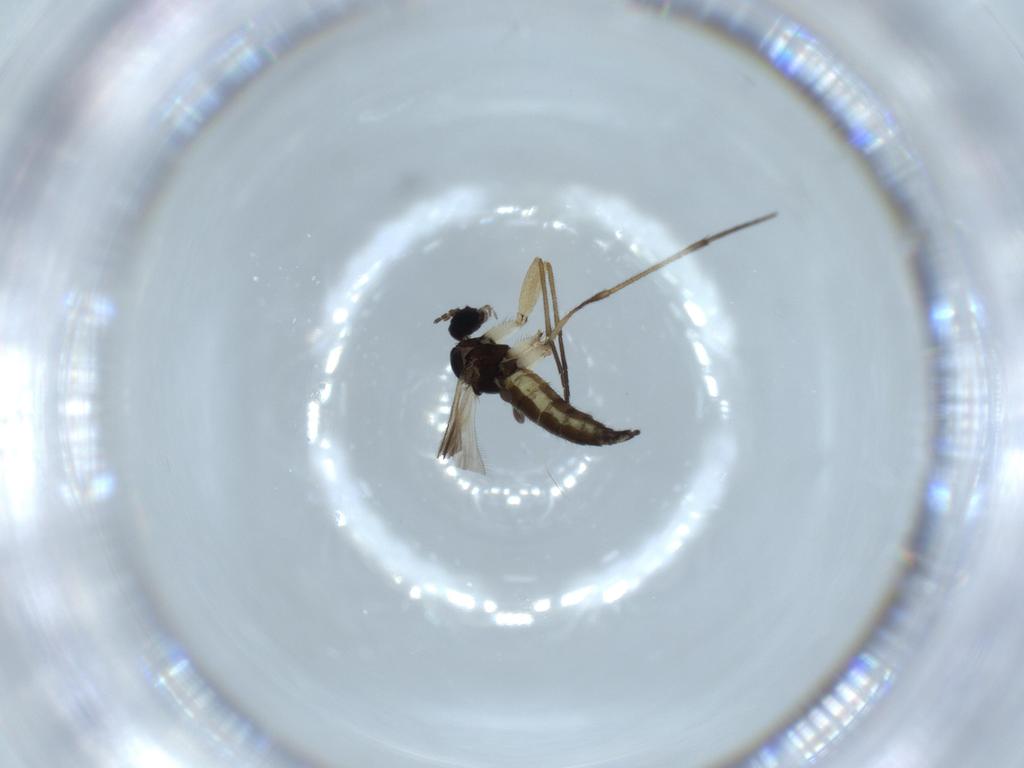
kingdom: Animalia
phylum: Arthropoda
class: Insecta
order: Diptera
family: Sciaridae
